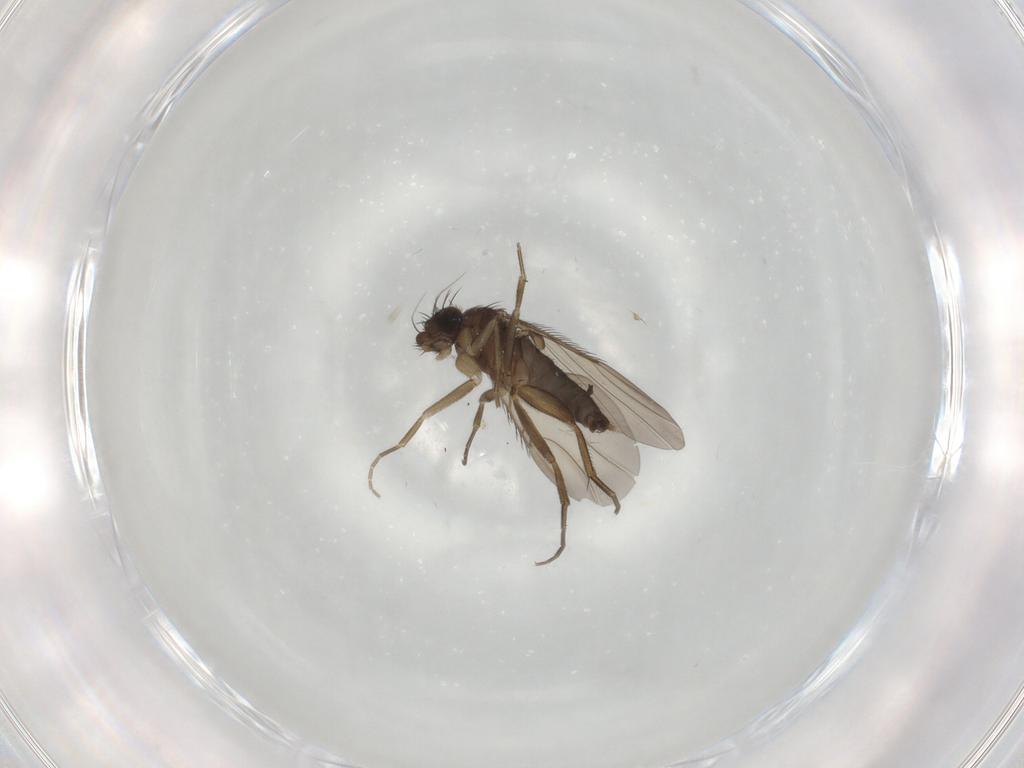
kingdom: Animalia
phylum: Arthropoda
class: Insecta
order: Diptera
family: Phoridae
